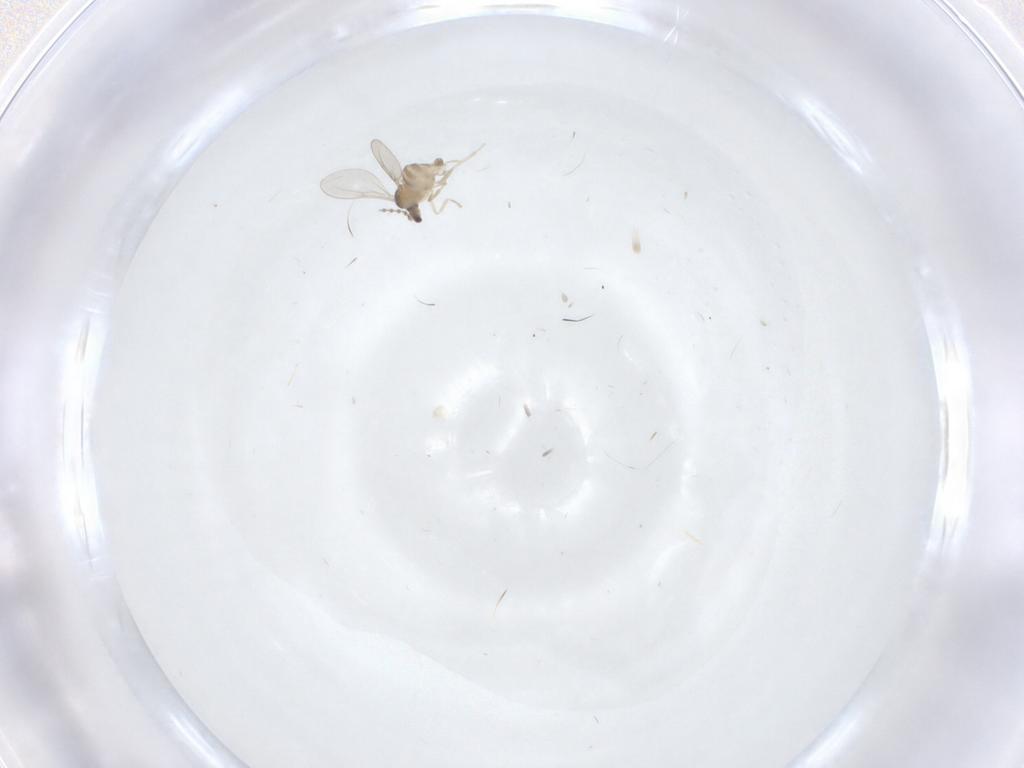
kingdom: Animalia
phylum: Arthropoda
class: Insecta
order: Diptera
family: Cecidomyiidae
